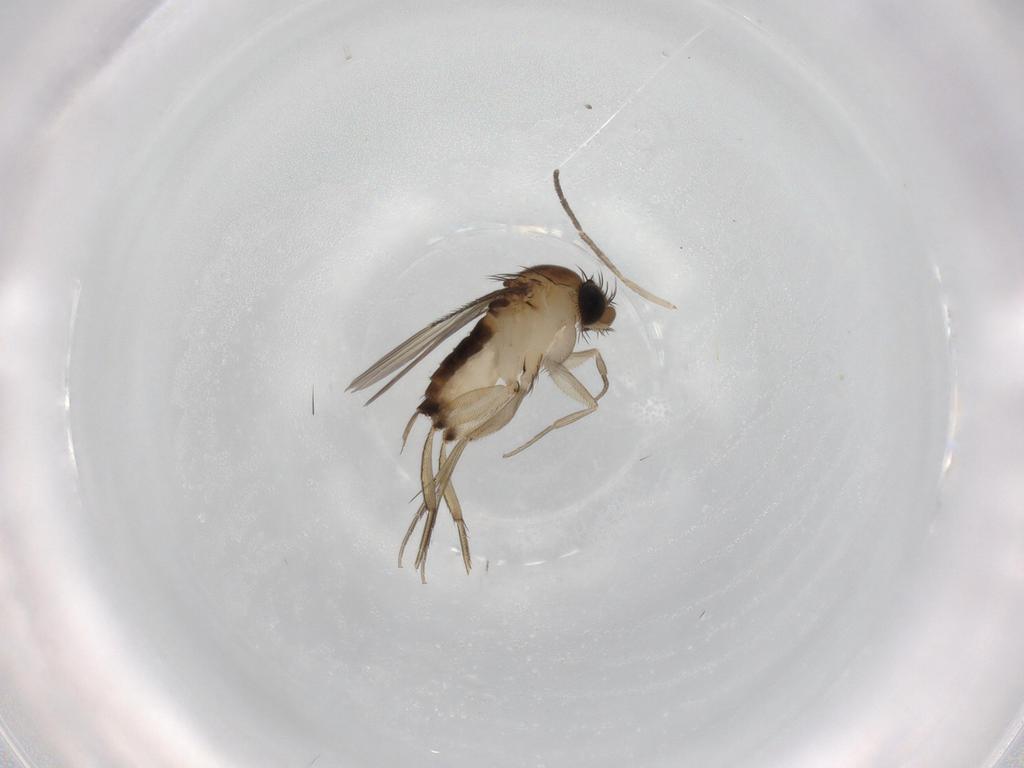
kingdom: Animalia
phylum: Arthropoda
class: Insecta
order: Diptera
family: Phoridae
